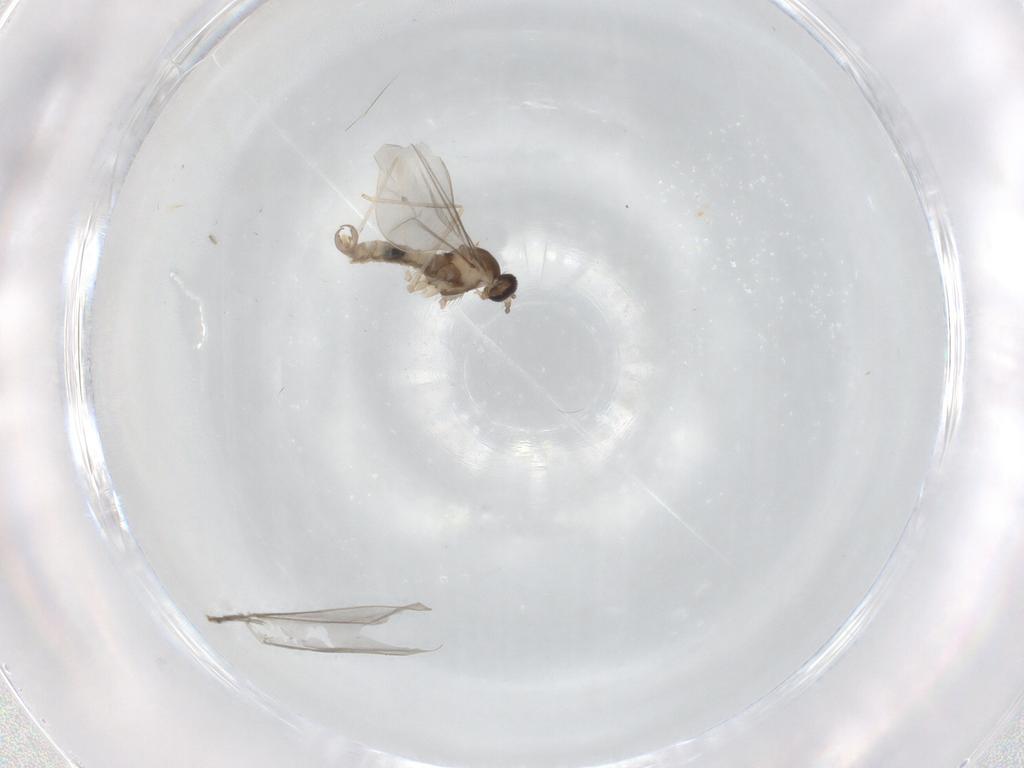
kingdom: Animalia
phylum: Arthropoda
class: Insecta
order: Diptera
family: Cecidomyiidae
